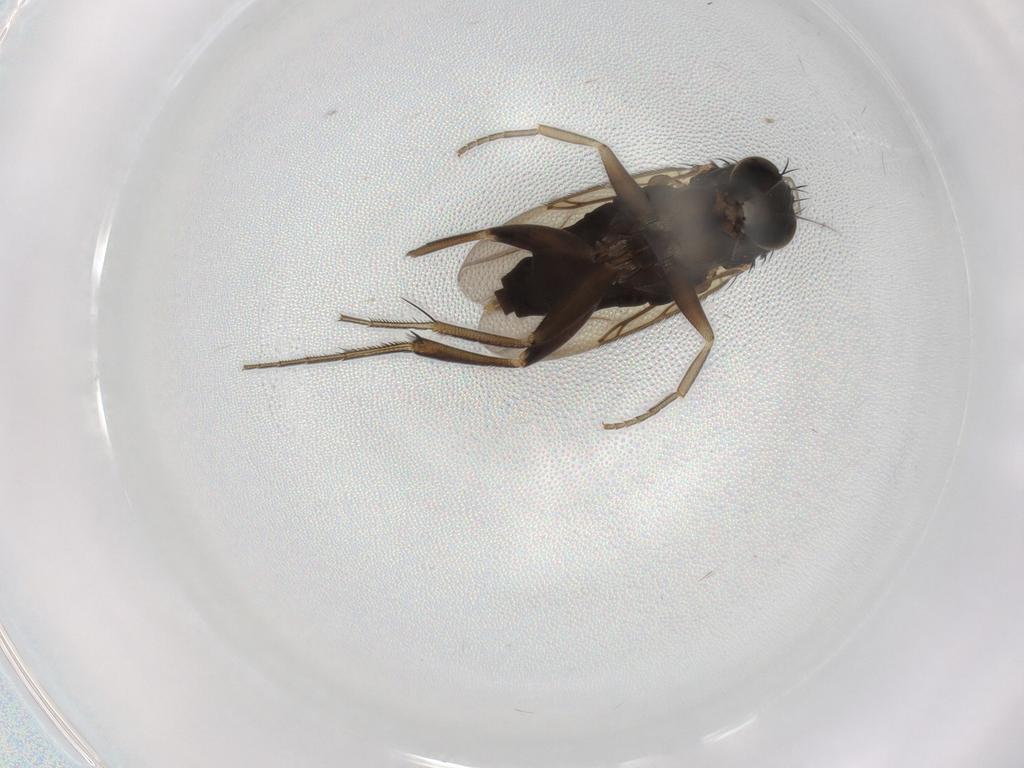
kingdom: Animalia
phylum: Arthropoda
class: Insecta
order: Diptera
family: Phoridae
